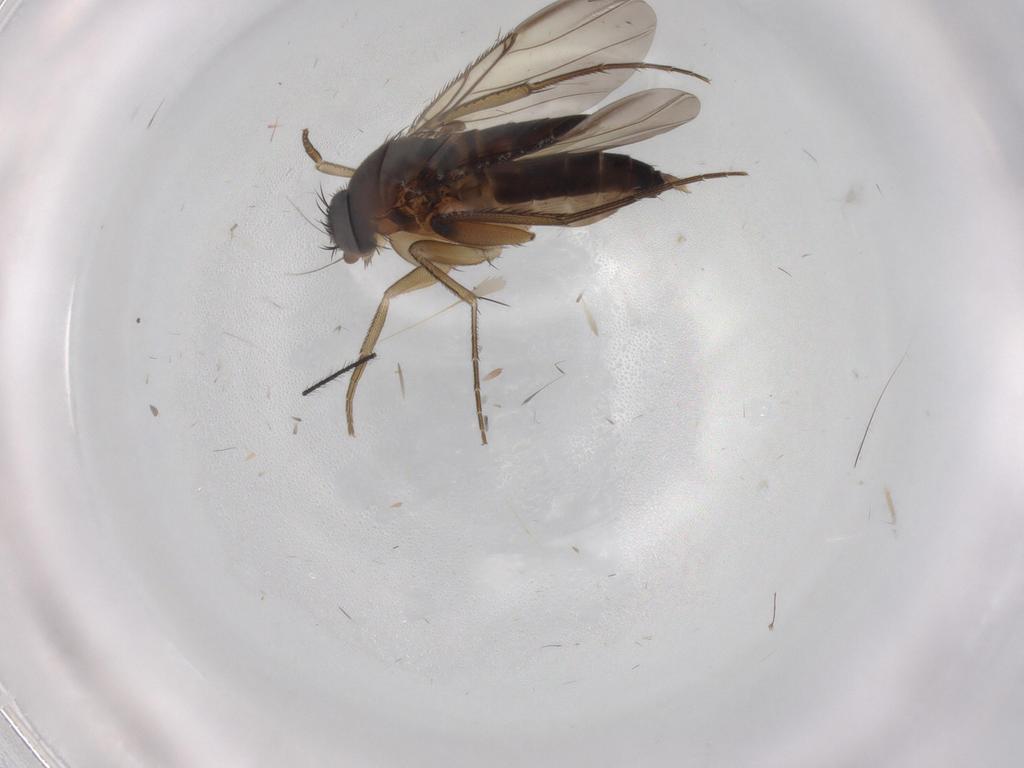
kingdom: Animalia
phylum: Arthropoda
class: Insecta
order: Diptera
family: Phoridae
